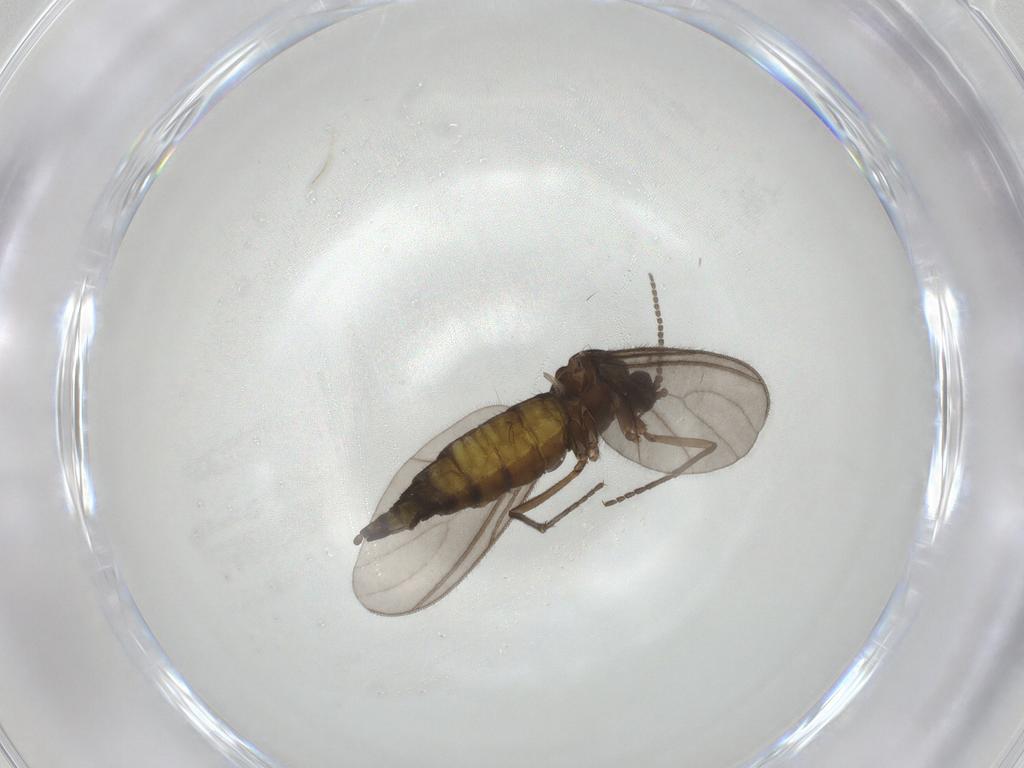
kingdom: Animalia
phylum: Arthropoda
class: Insecta
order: Diptera
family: Sciaridae
